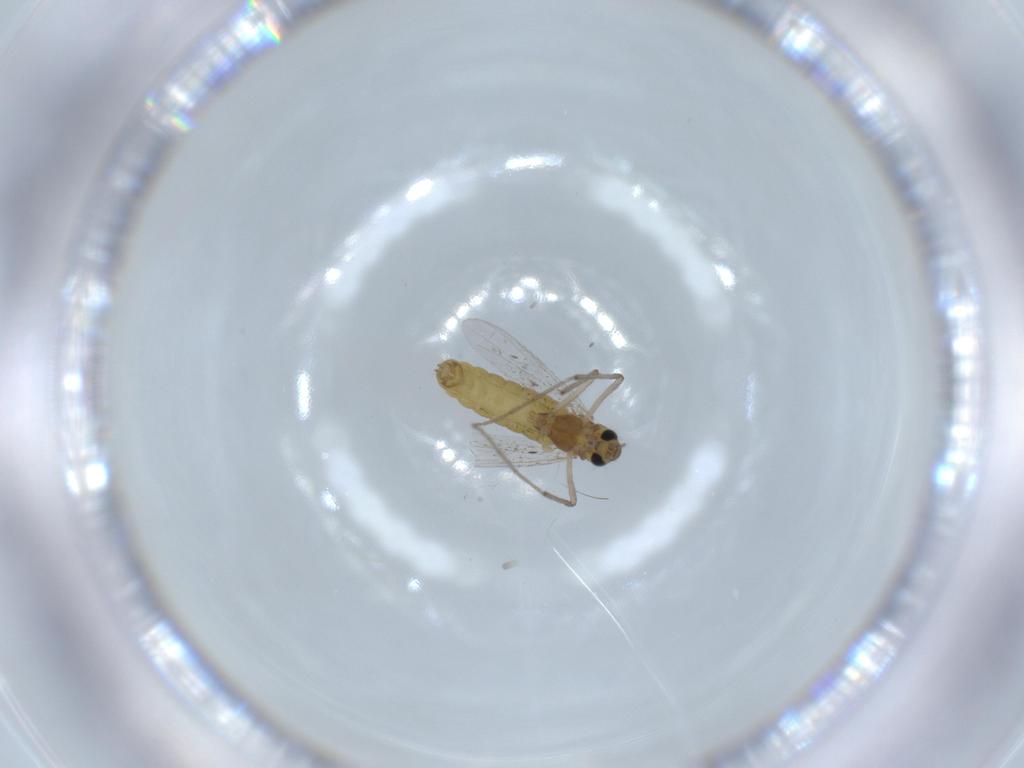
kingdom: Animalia
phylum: Arthropoda
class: Insecta
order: Diptera
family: Chironomidae
